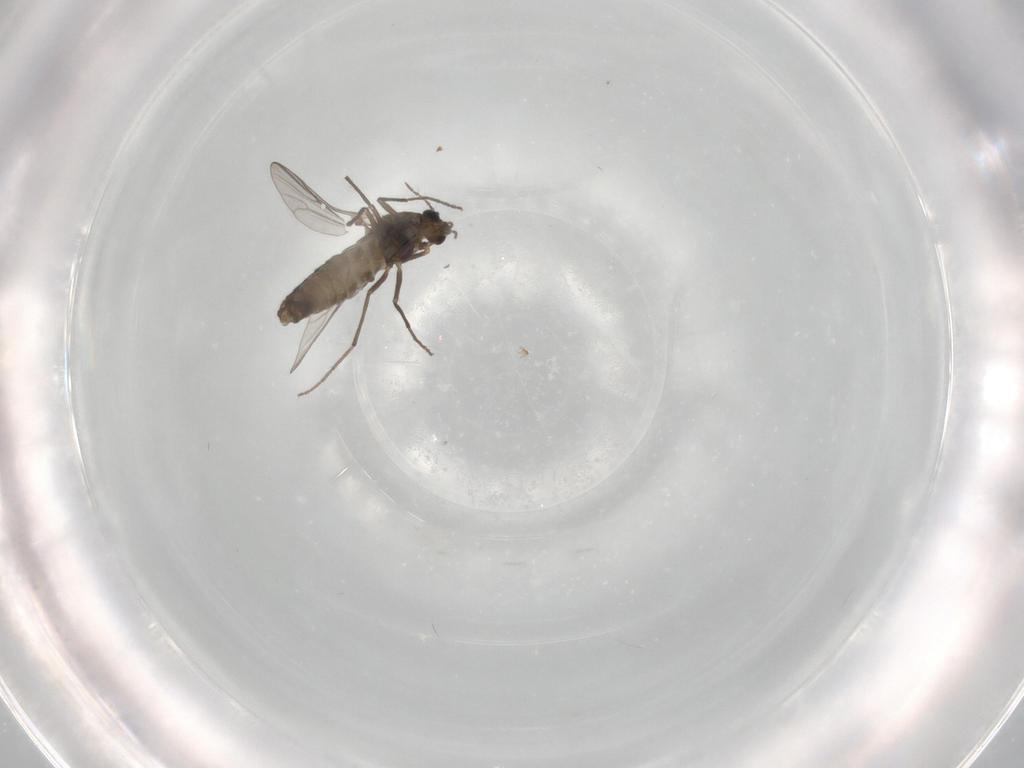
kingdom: Animalia
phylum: Arthropoda
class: Insecta
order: Diptera
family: Chironomidae
